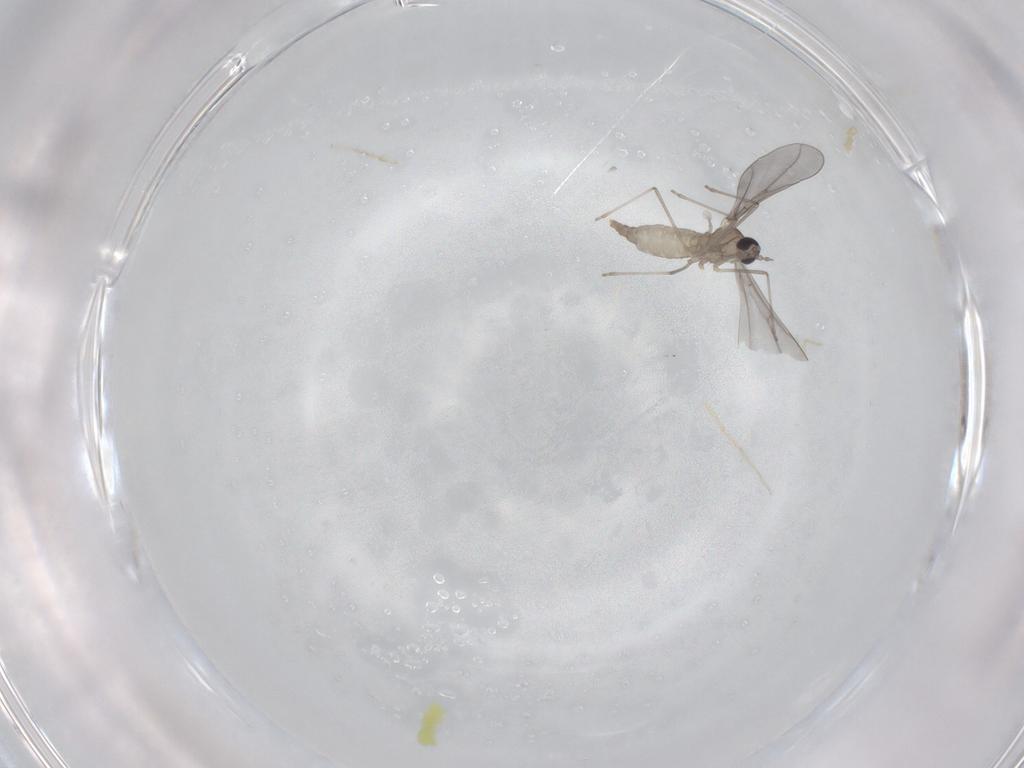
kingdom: Animalia
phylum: Arthropoda
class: Insecta
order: Diptera
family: Cecidomyiidae
